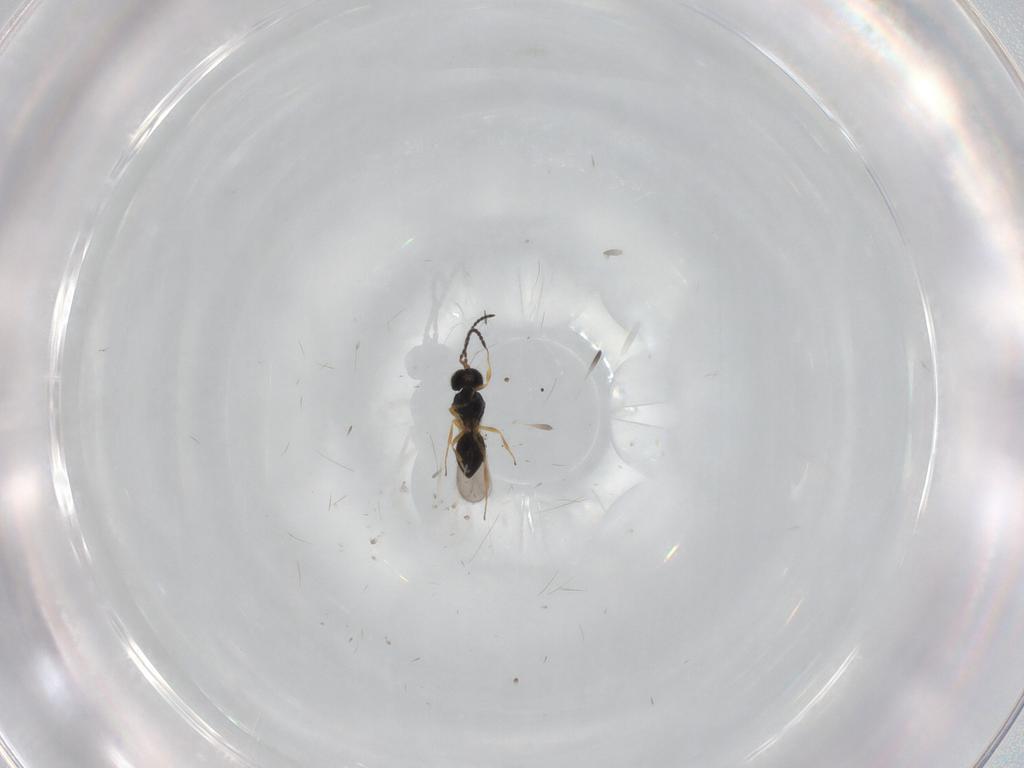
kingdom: Animalia
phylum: Arthropoda
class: Insecta
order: Hymenoptera
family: Scelionidae
